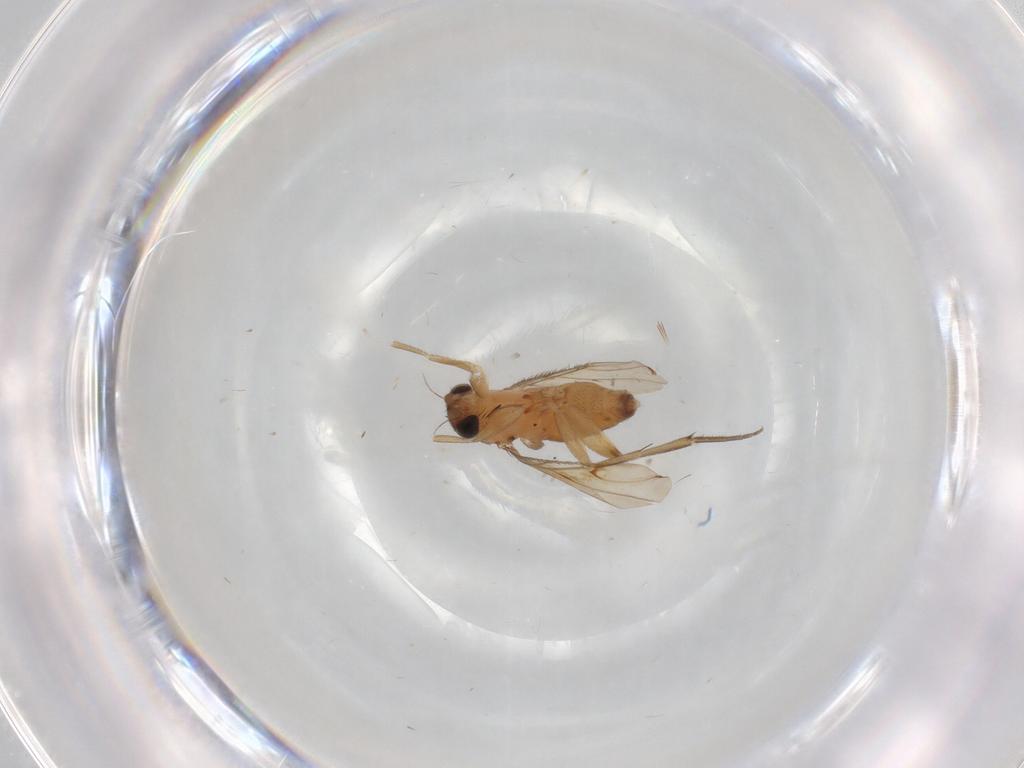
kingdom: Animalia
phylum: Arthropoda
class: Insecta
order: Diptera
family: Phoridae
